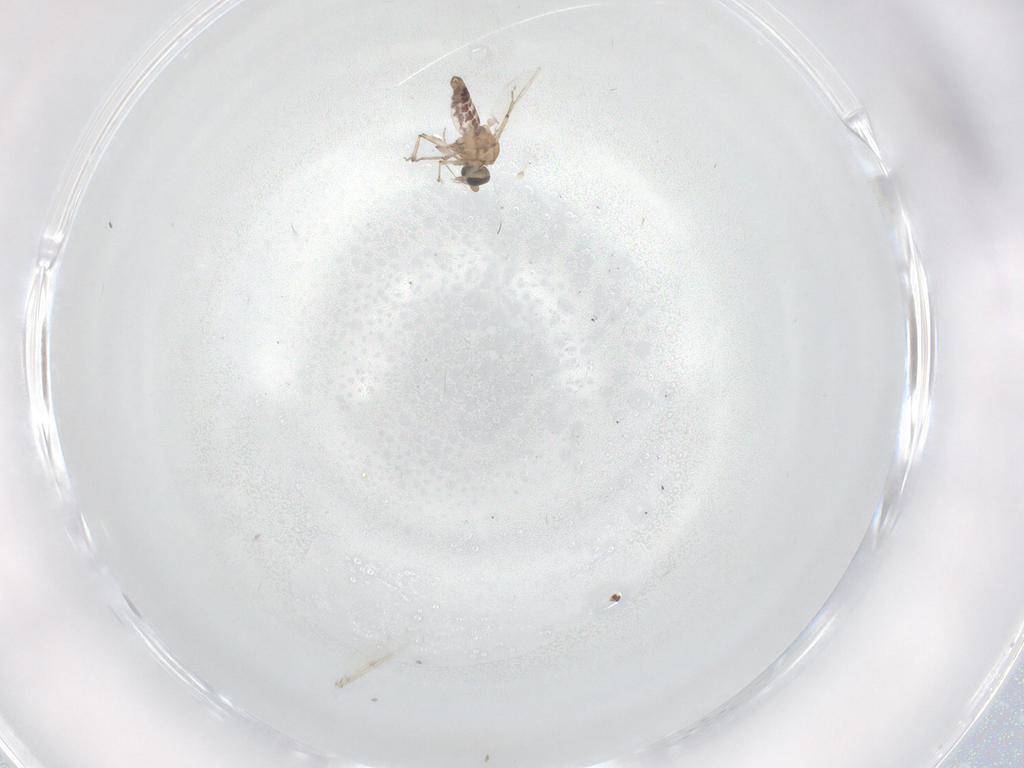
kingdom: Animalia
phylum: Arthropoda
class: Insecta
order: Diptera
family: Ceratopogonidae
